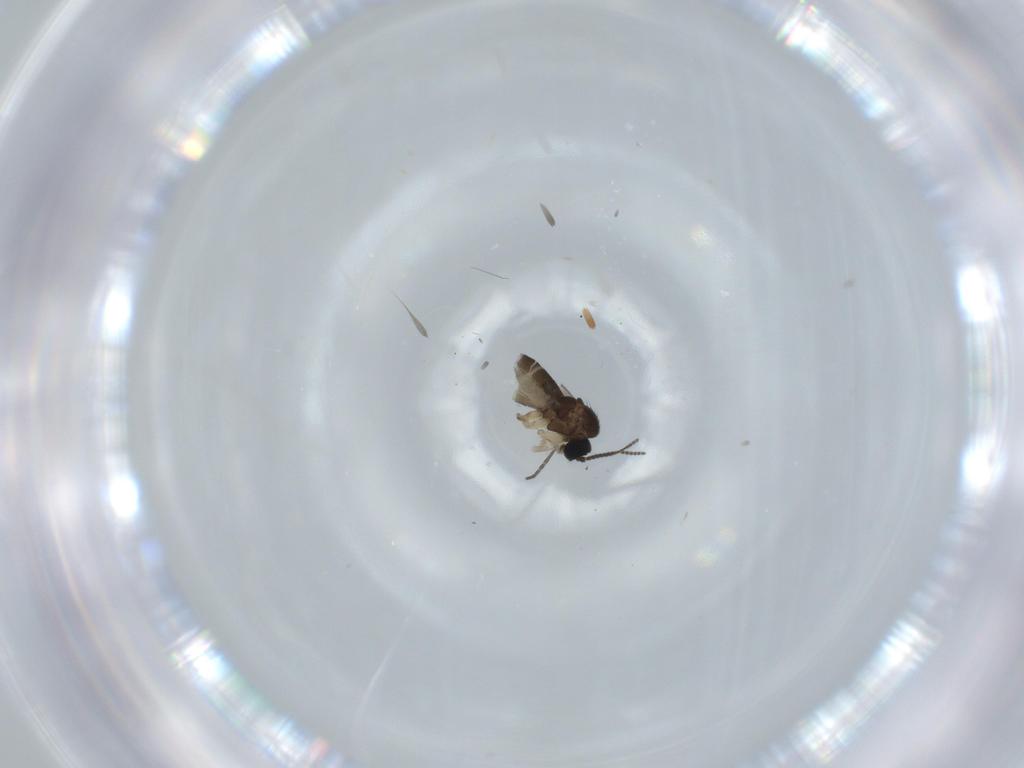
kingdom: Animalia
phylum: Arthropoda
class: Insecta
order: Diptera
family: Sciaridae
